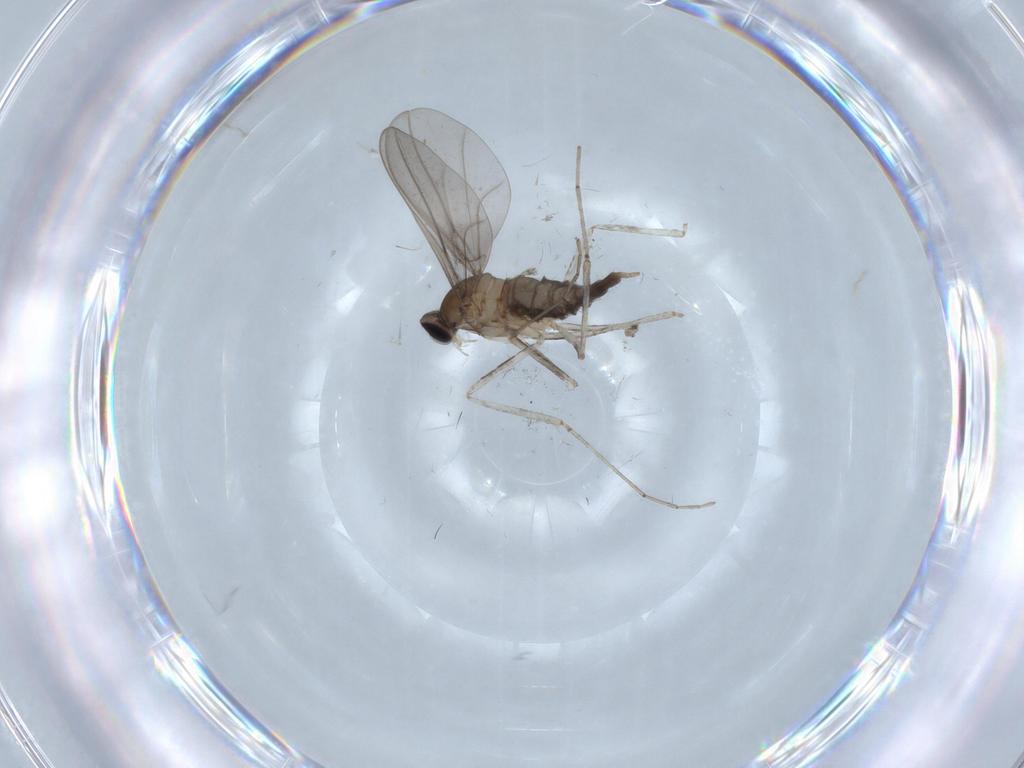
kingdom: Animalia
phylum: Arthropoda
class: Insecta
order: Diptera
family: Cecidomyiidae
